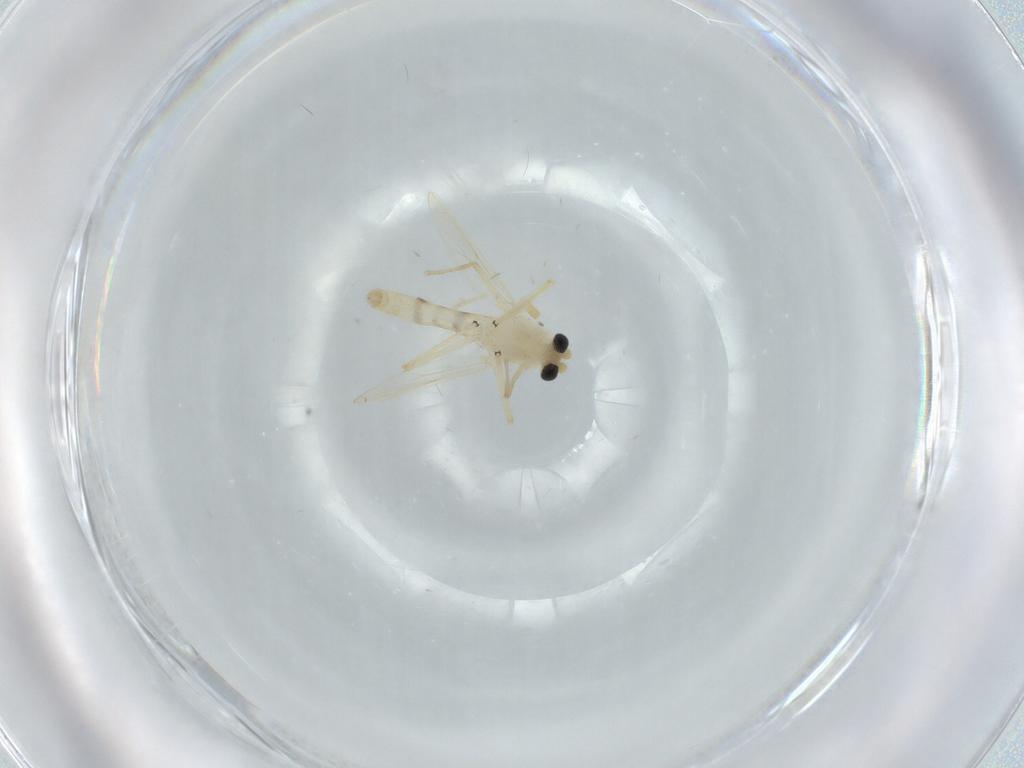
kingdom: Animalia
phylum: Arthropoda
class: Insecta
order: Diptera
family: Chironomidae
